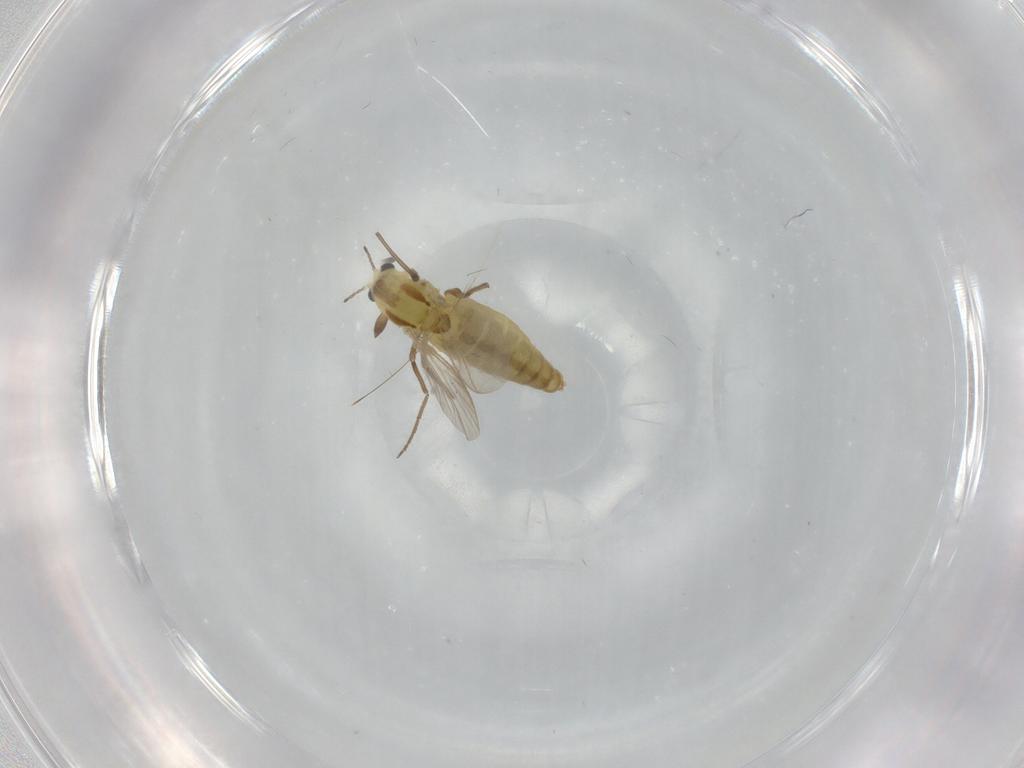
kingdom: Animalia
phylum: Arthropoda
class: Insecta
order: Diptera
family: Chironomidae
